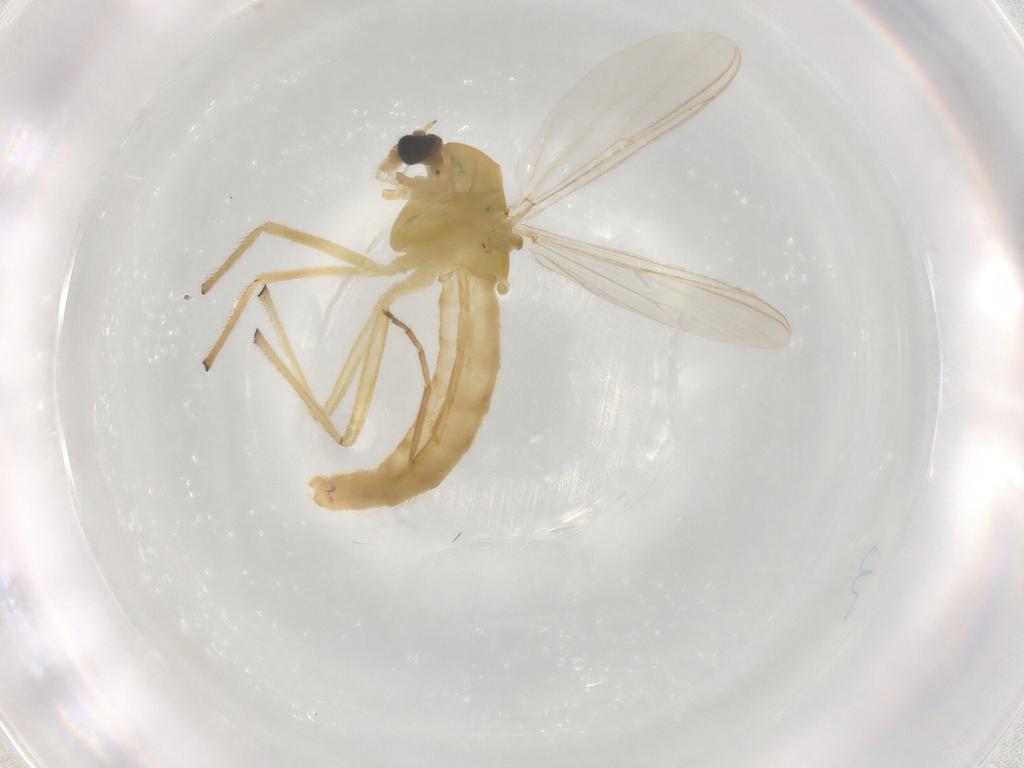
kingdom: Animalia
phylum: Arthropoda
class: Insecta
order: Diptera
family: Chironomidae
